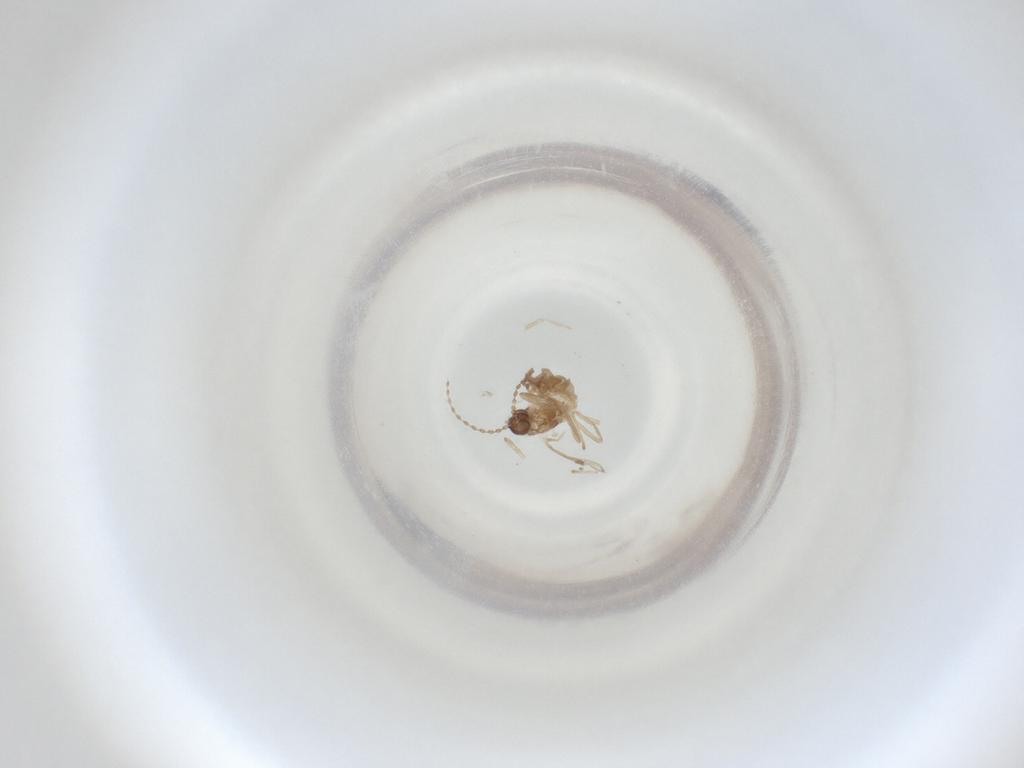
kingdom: Animalia
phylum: Arthropoda
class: Insecta
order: Diptera
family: Cecidomyiidae
